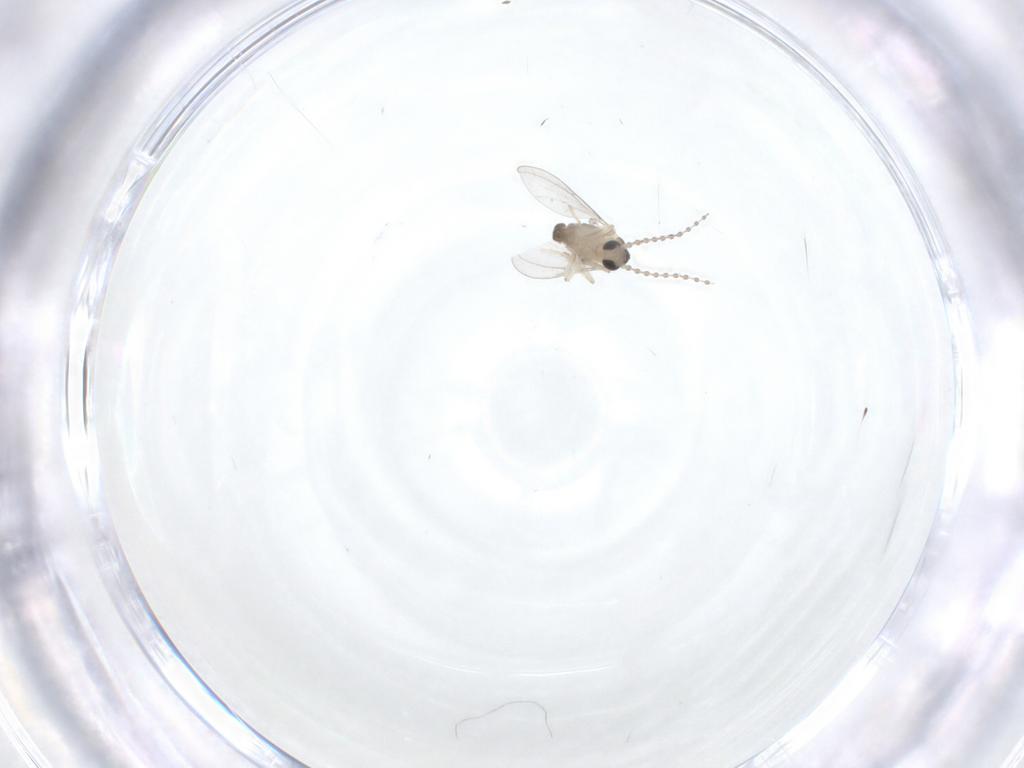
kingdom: Animalia
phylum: Arthropoda
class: Insecta
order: Diptera
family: Cecidomyiidae
